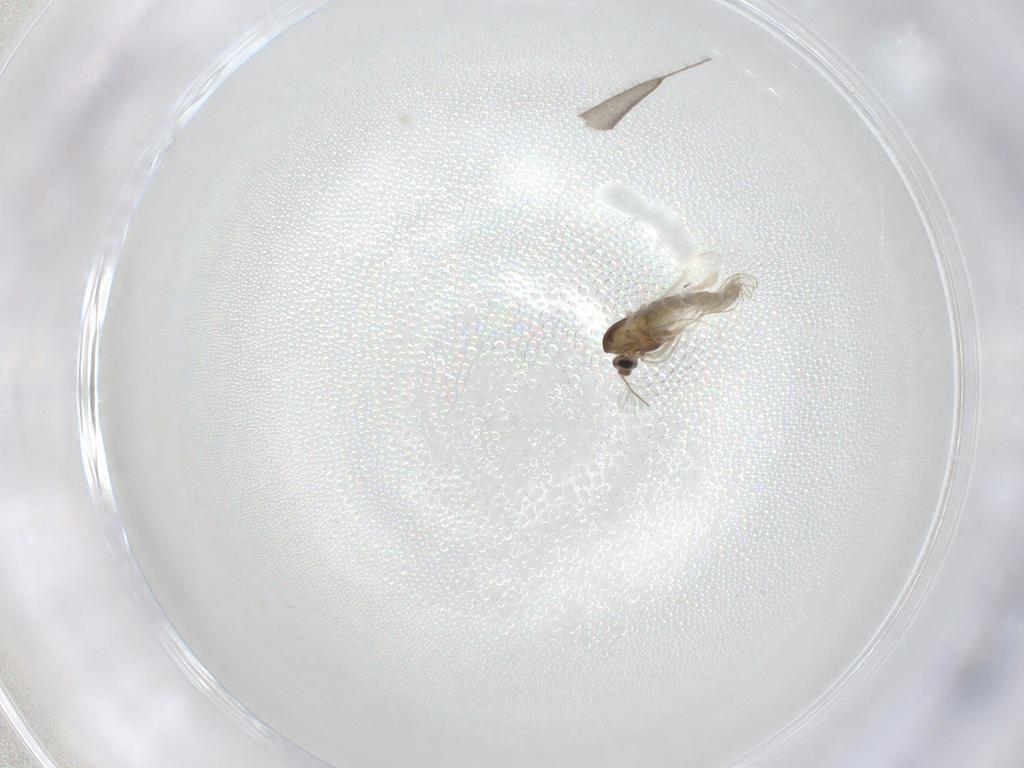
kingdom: Animalia
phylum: Arthropoda
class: Insecta
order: Diptera
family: Chironomidae
